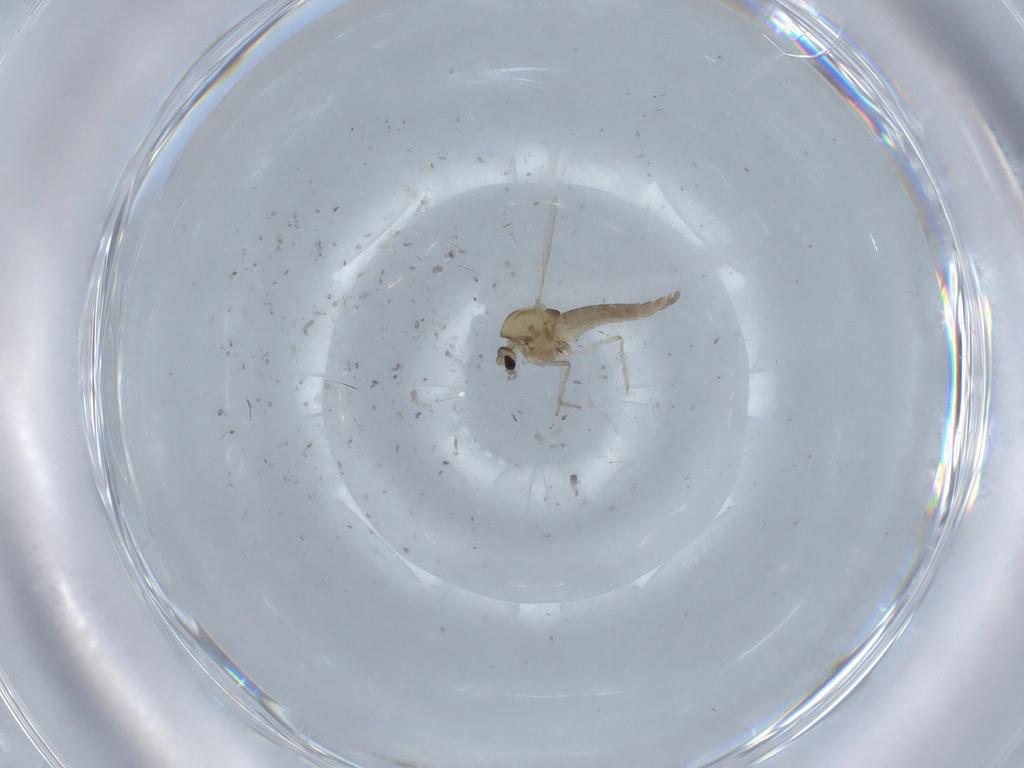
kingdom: Animalia
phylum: Arthropoda
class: Insecta
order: Diptera
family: Chironomidae
